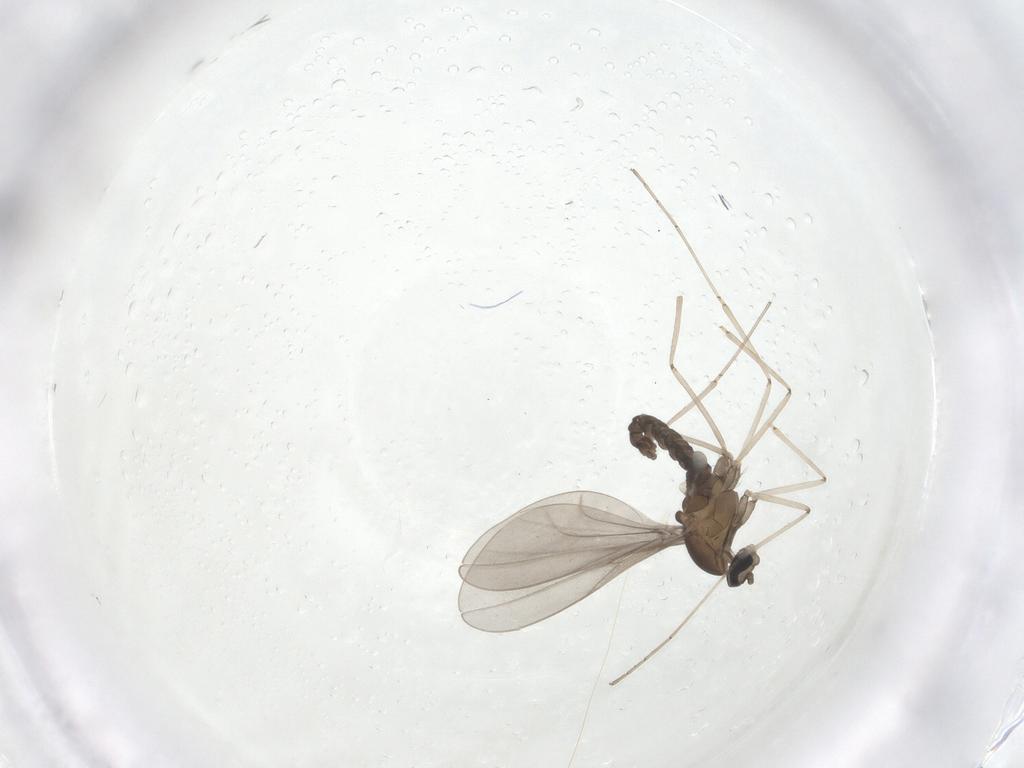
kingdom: Animalia
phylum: Arthropoda
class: Insecta
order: Diptera
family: Cecidomyiidae
